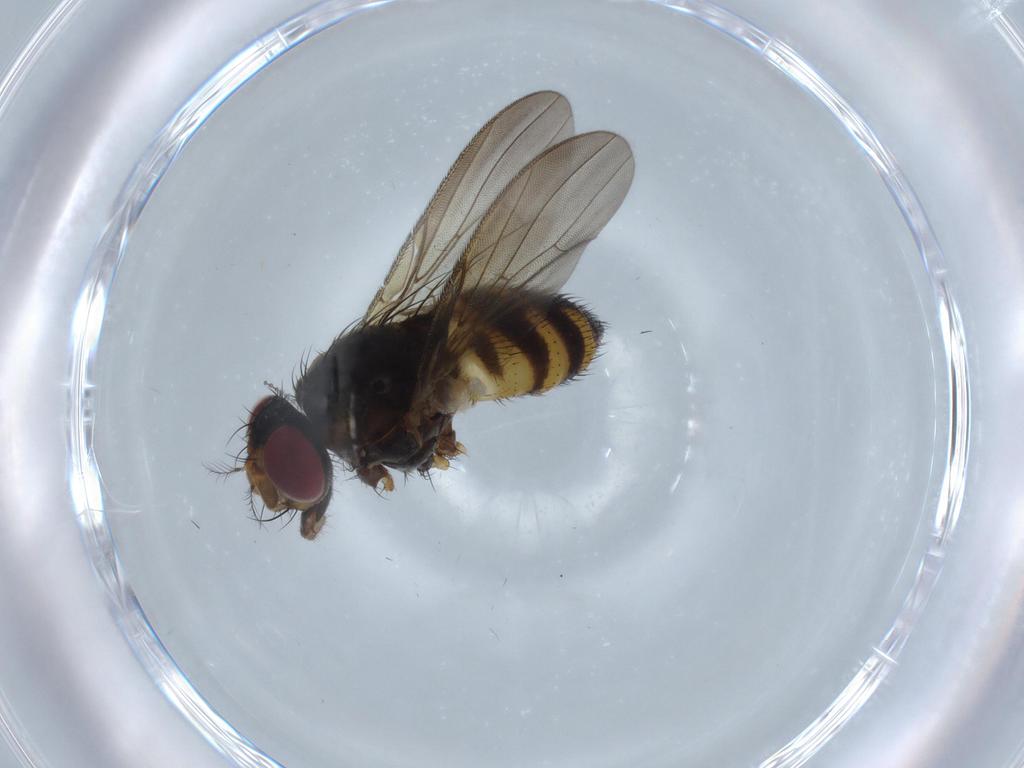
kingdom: Animalia
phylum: Arthropoda
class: Insecta
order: Diptera
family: Anthomyiidae
